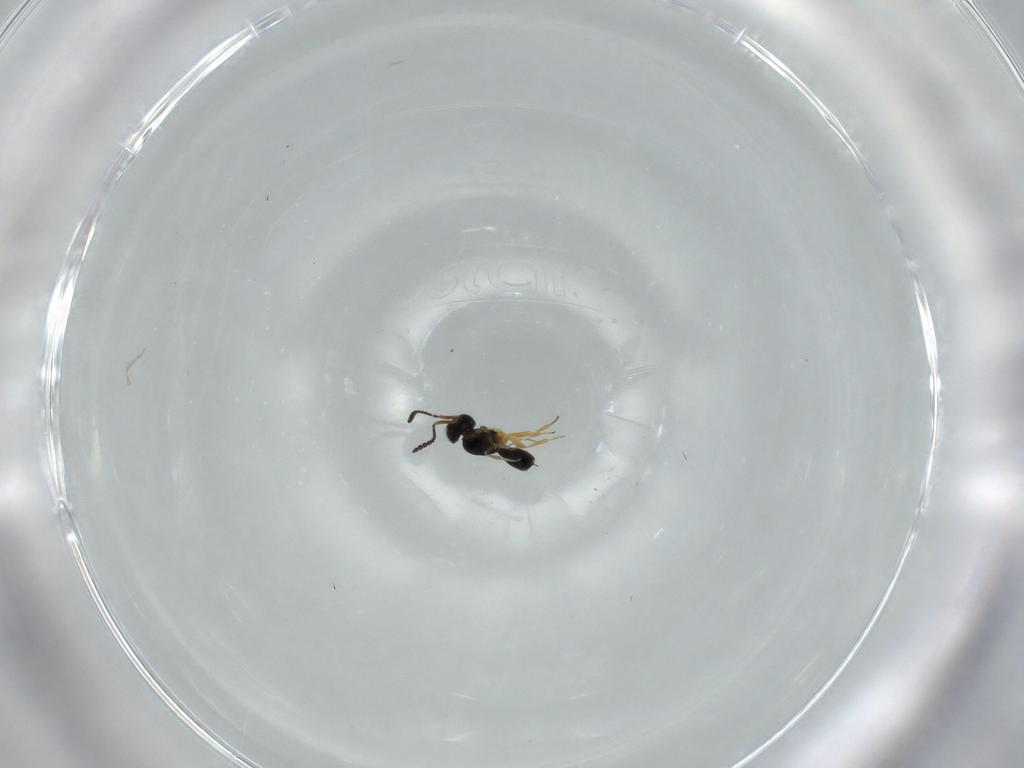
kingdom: Animalia
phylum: Arthropoda
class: Insecta
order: Hymenoptera
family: Scelionidae
